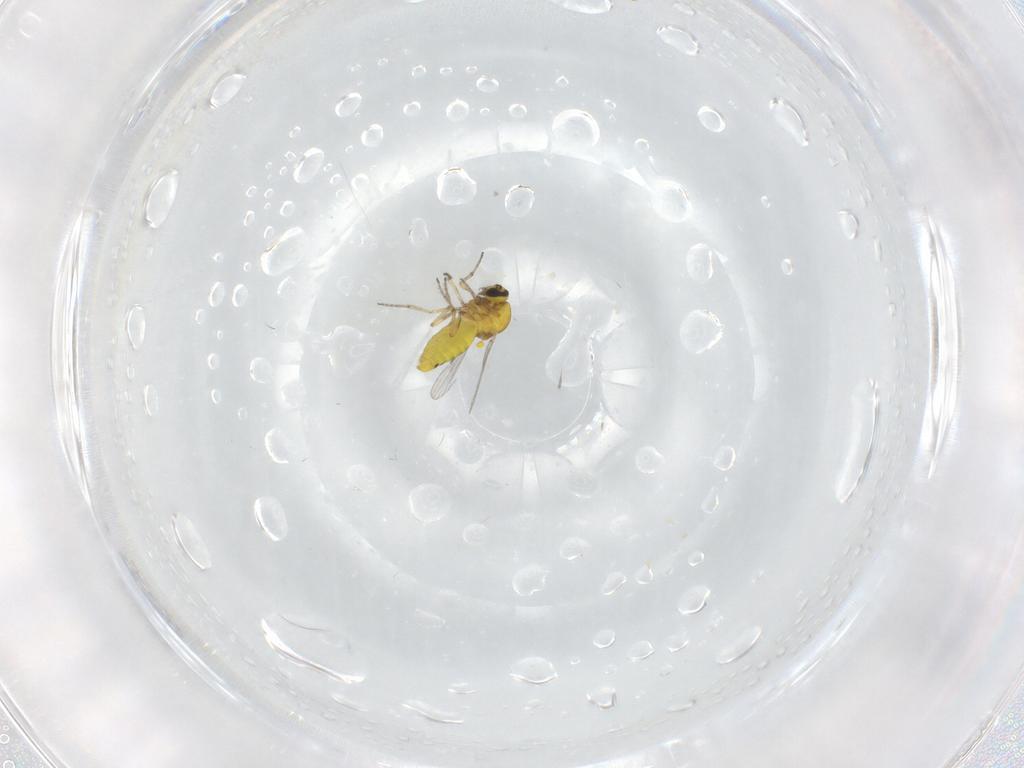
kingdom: Animalia
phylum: Arthropoda
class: Insecta
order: Diptera
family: Ceratopogonidae
